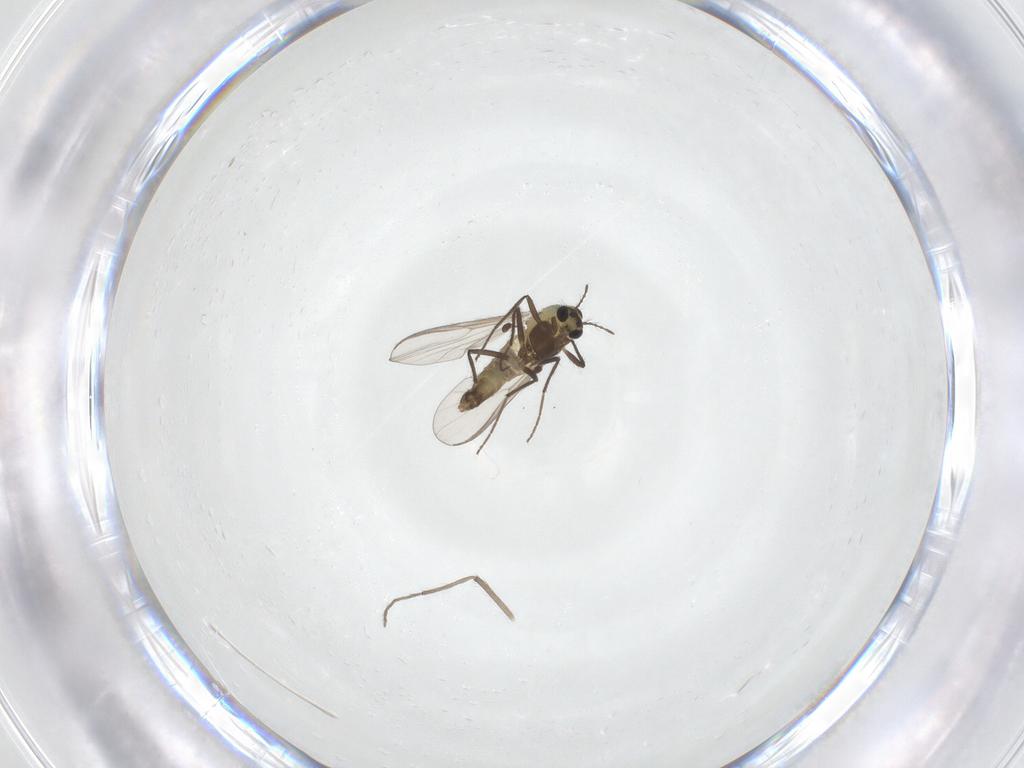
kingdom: Animalia
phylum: Arthropoda
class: Insecta
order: Diptera
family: Chironomidae
